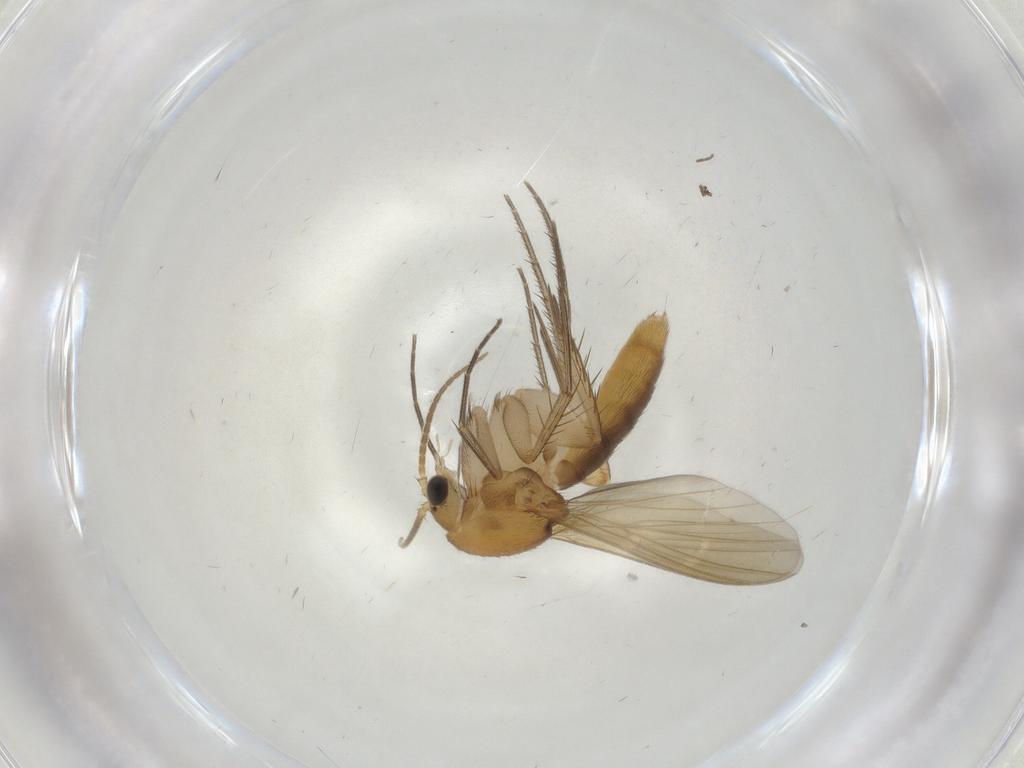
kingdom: Animalia
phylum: Arthropoda
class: Insecta
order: Diptera
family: Mycetophilidae
